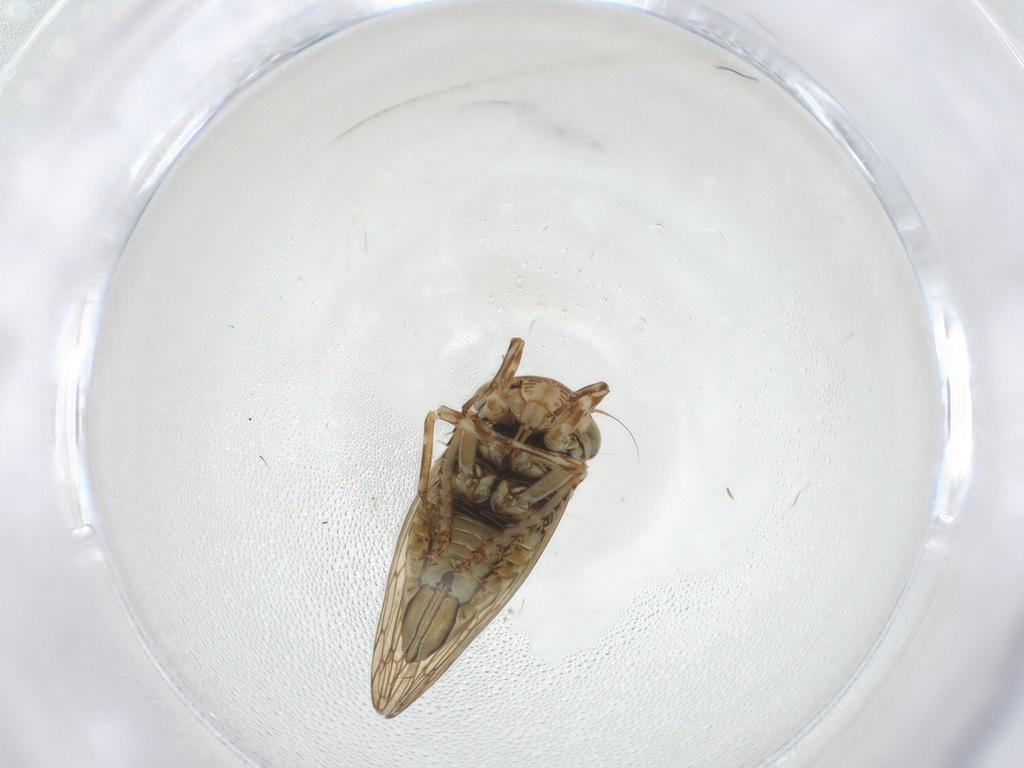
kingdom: Animalia
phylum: Arthropoda
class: Insecta
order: Hemiptera
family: Cicadellidae
